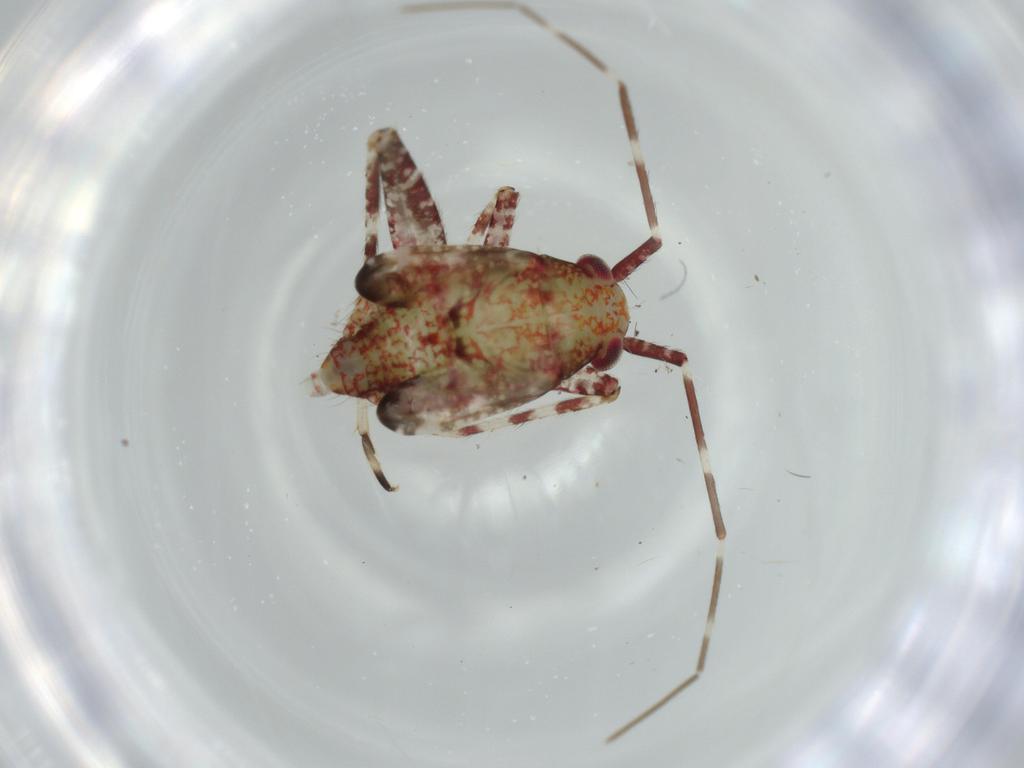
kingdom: Animalia
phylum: Arthropoda
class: Insecta
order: Hemiptera
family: Miridae
